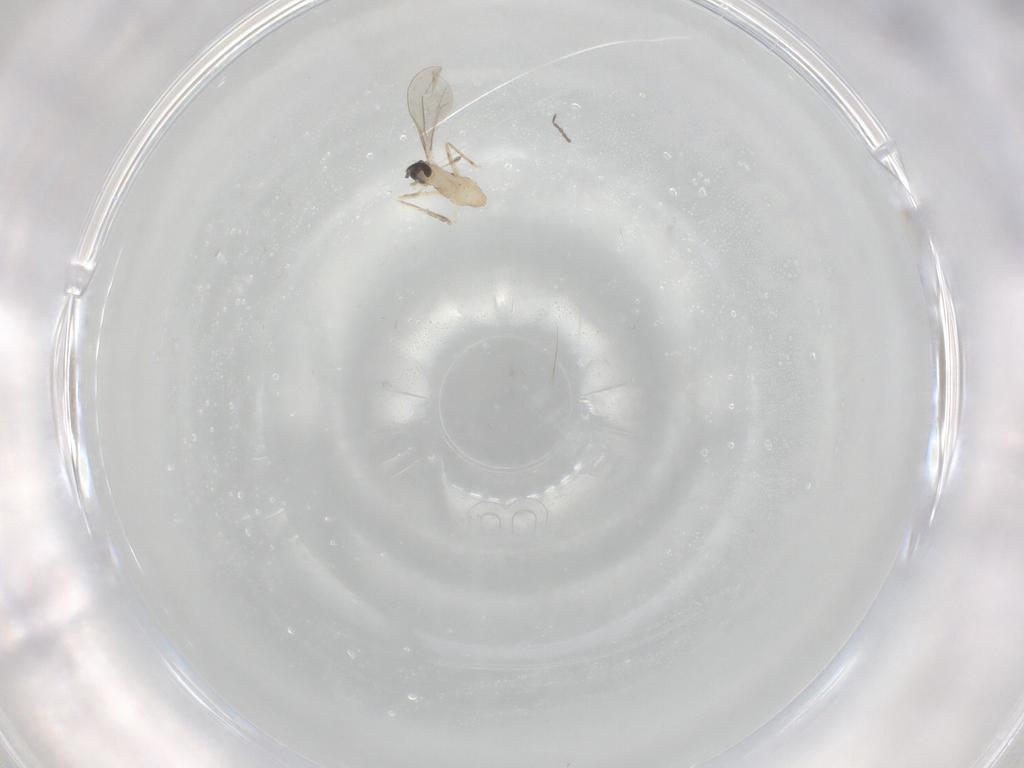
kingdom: Animalia
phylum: Arthropoda
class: Insecta
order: Diptera
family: Cecidomyiidae
